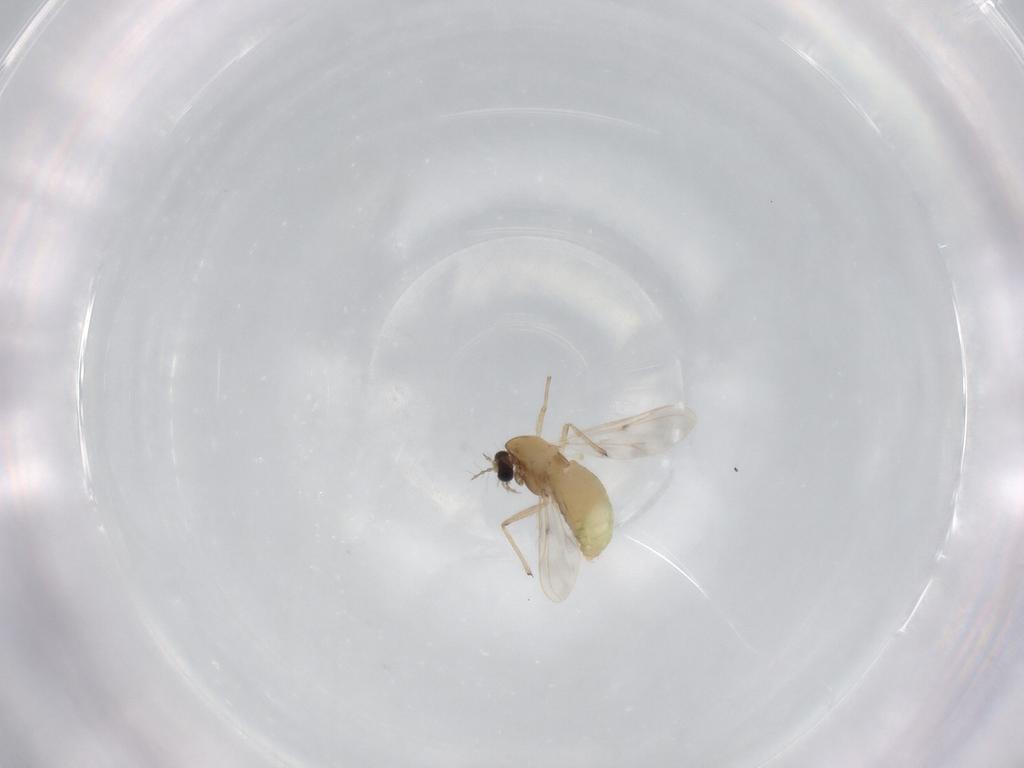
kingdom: Animalia
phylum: Arthropoda
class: Insecta
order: Diptera
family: Chironomidae
